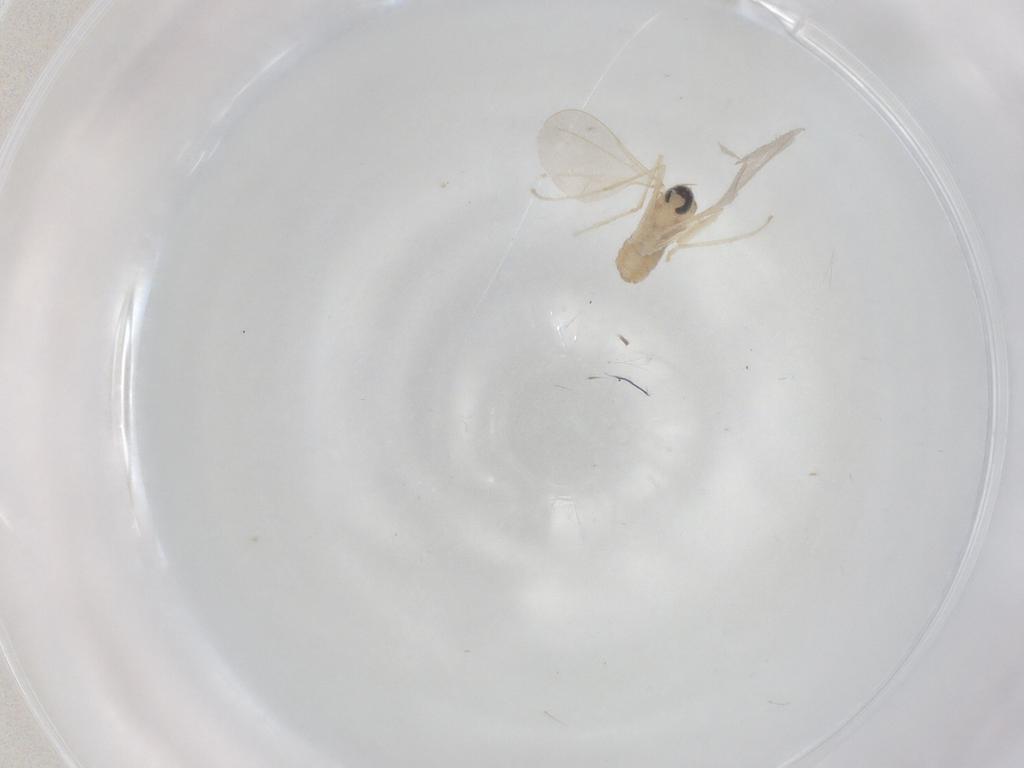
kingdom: Animalia
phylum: Arthropoda
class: Insecta
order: Diptera
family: Cecidomyiidae
